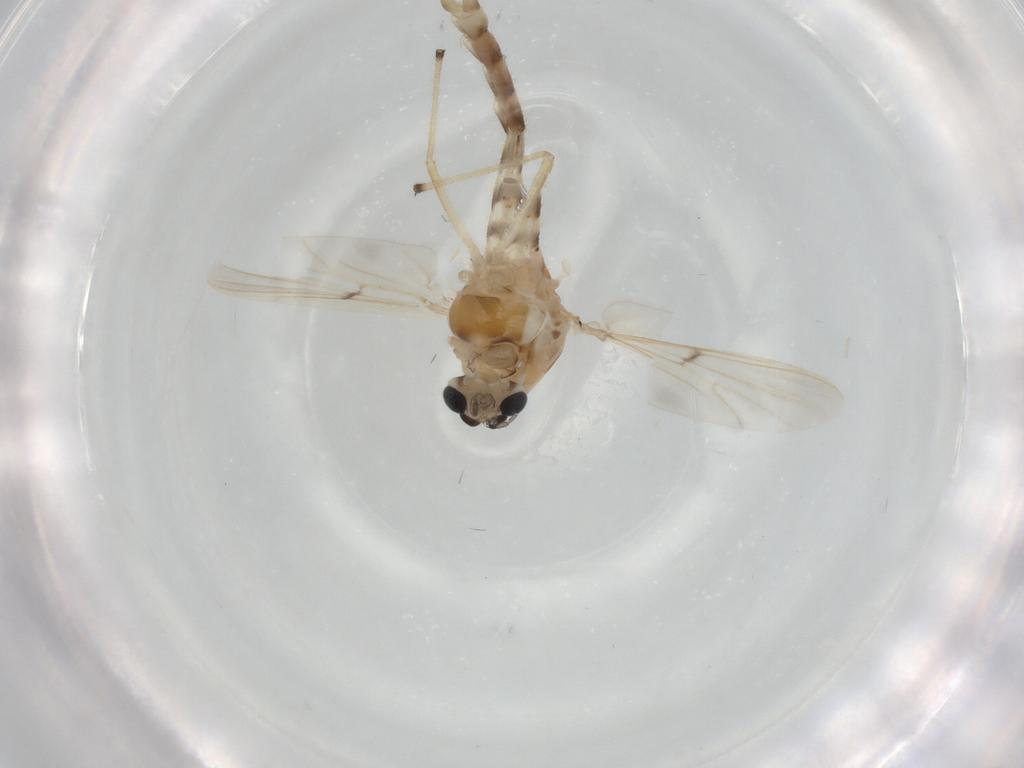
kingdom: Animalia
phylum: Arthropoda
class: Insecta
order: Diptera
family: Chironomidae
